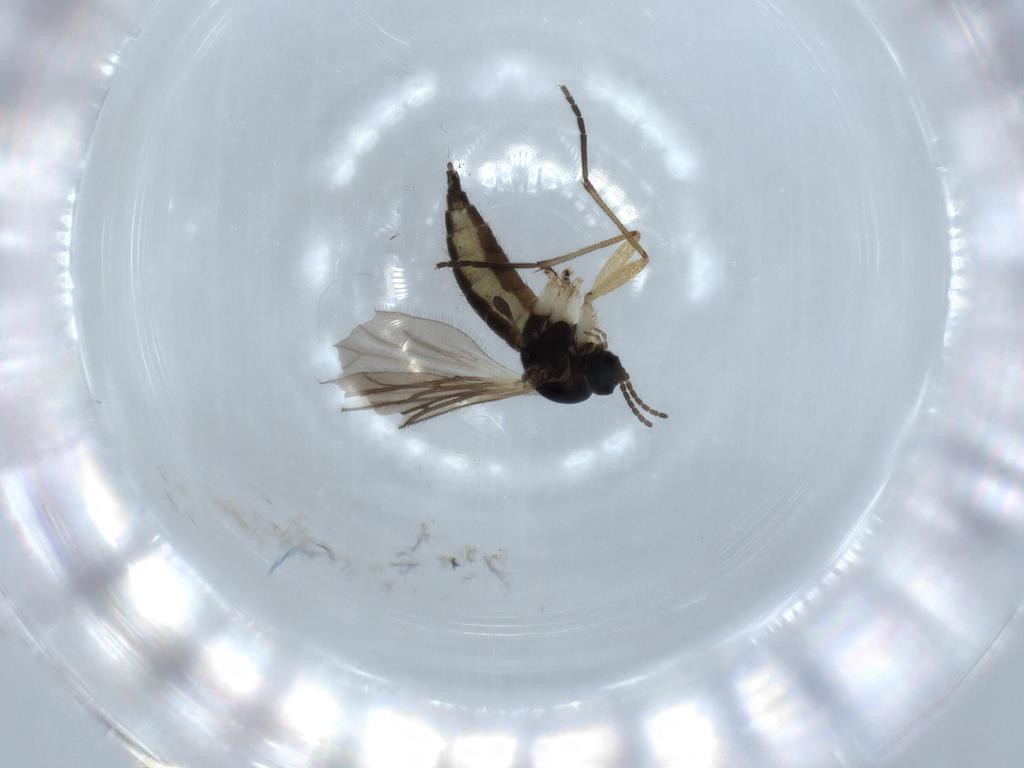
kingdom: Animalia
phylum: Arthropoda
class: Insecta
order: Diptera
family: Sciaridae
